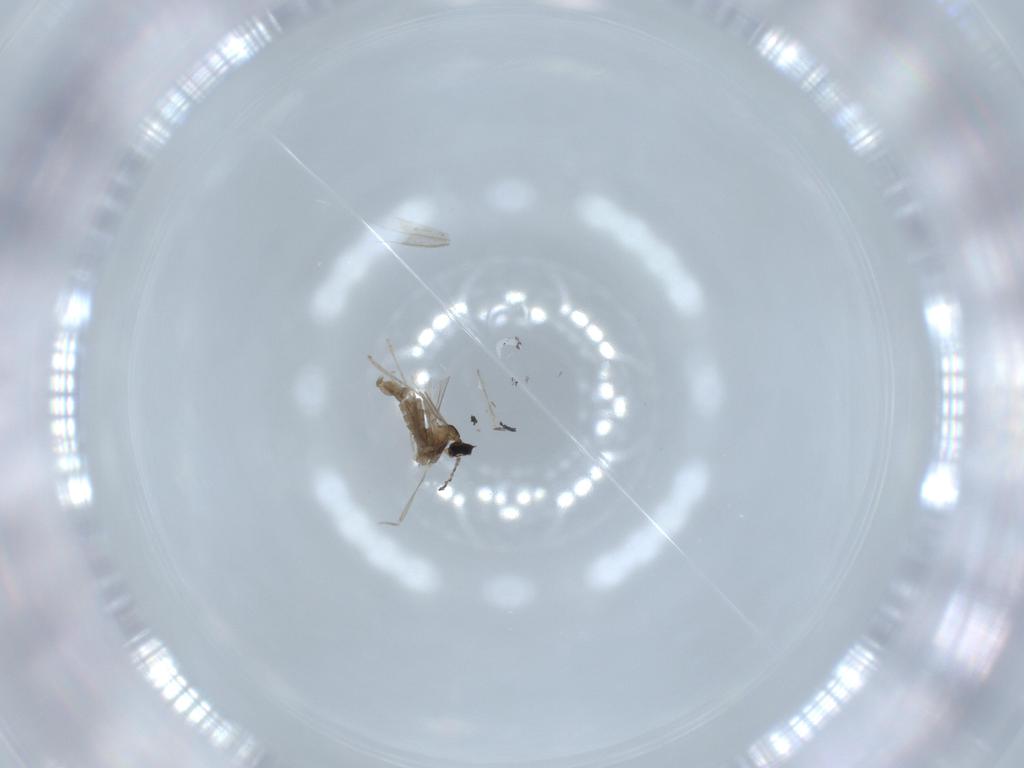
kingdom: Animalia
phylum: Arthropoda
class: Insecta
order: Diptera
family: Cecidomyiidae
